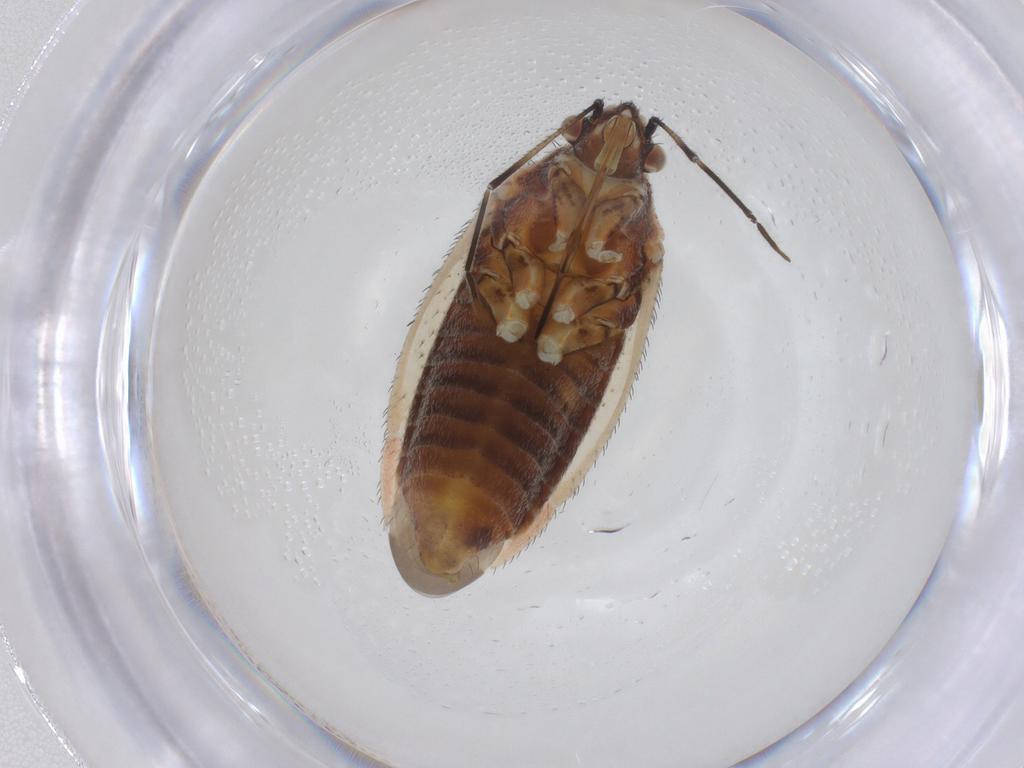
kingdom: Animalia
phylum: Arthropoda
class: Insecta
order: Hemiptera
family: Miridae
